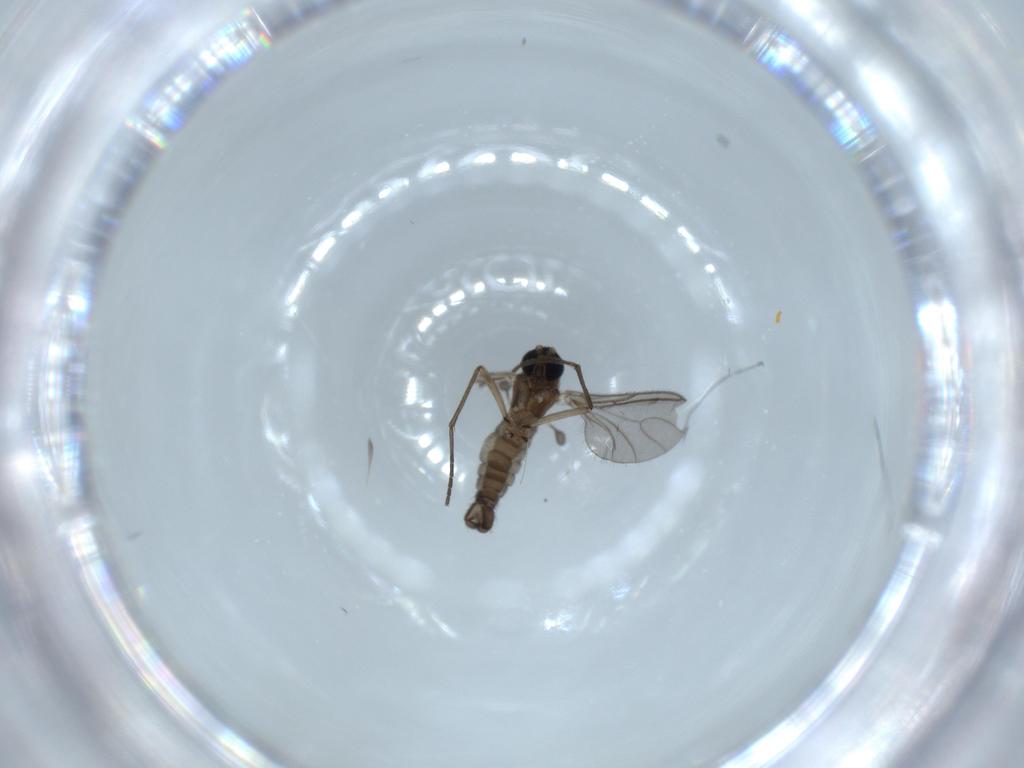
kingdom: Animalia
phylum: Arthropoda
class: Insecta
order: Diptera
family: Sciaridae
